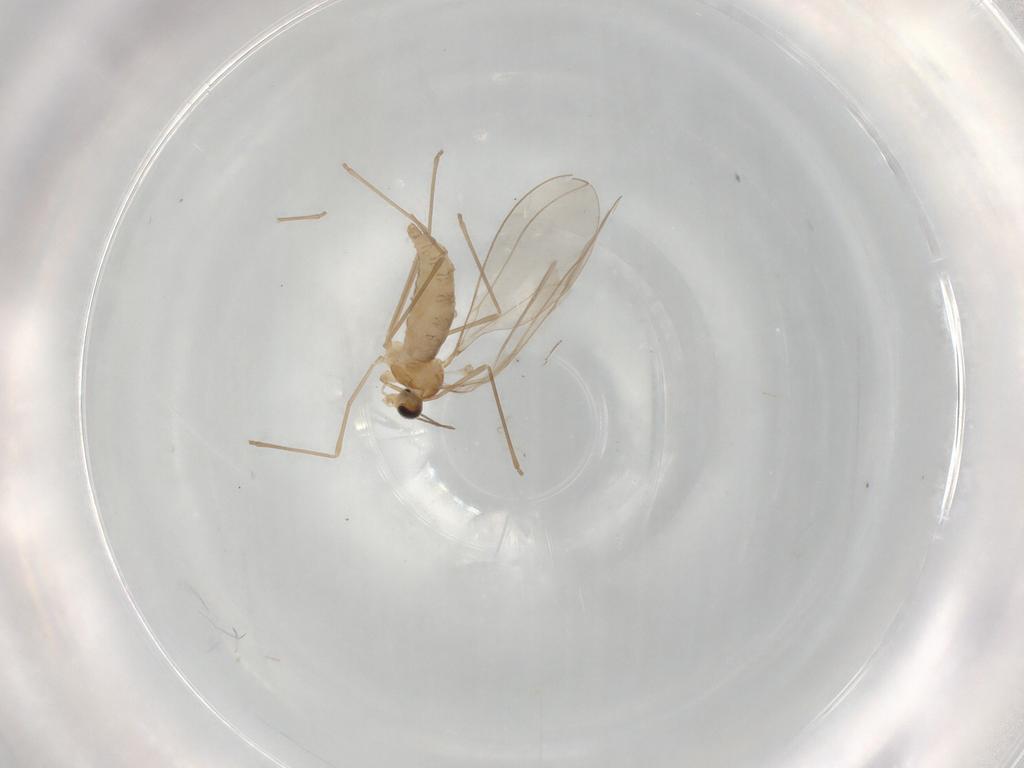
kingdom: Animalia
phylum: Arthropoda
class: Insecta
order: Diptera
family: Cecidomyiidae
